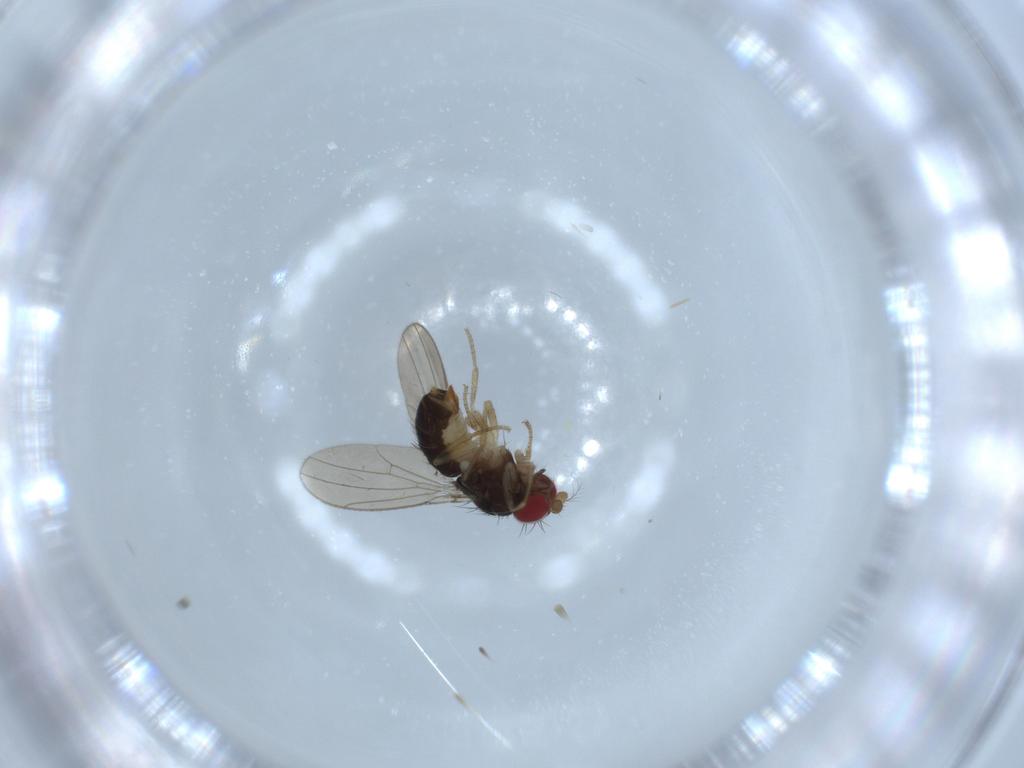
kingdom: Animalia
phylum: Arthropoda
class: Insecta
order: Diptera
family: Drosophilidae
